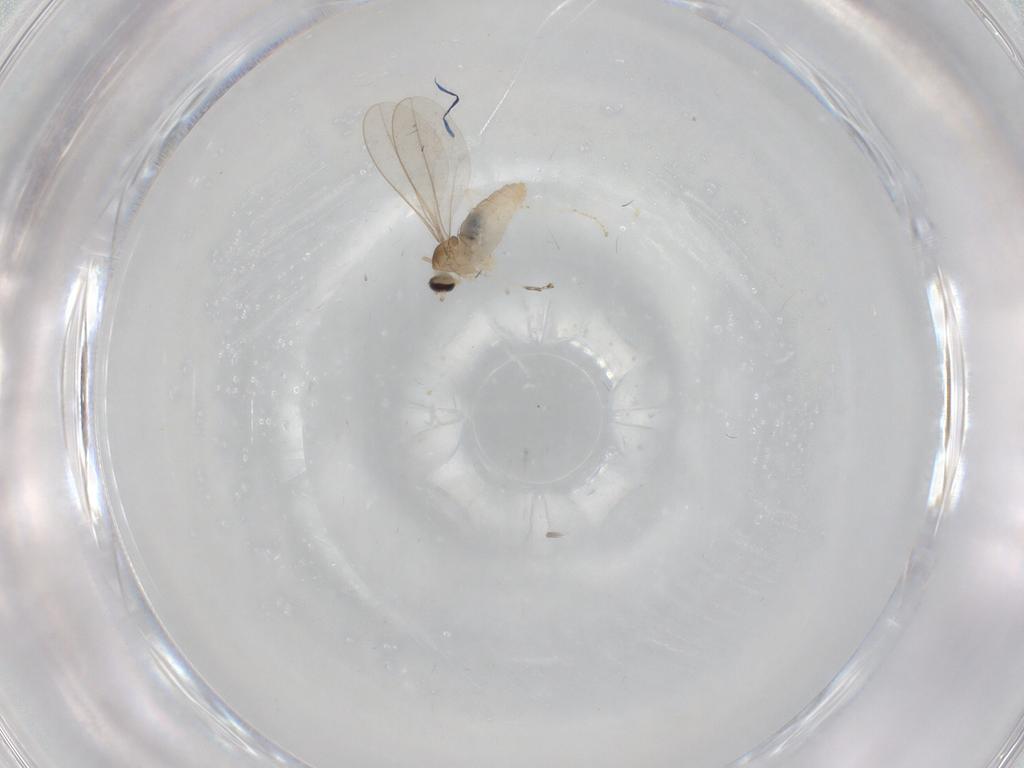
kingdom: Animalia
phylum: Arthropoda
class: Insecta
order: Diptera
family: Cecidomyiidae
